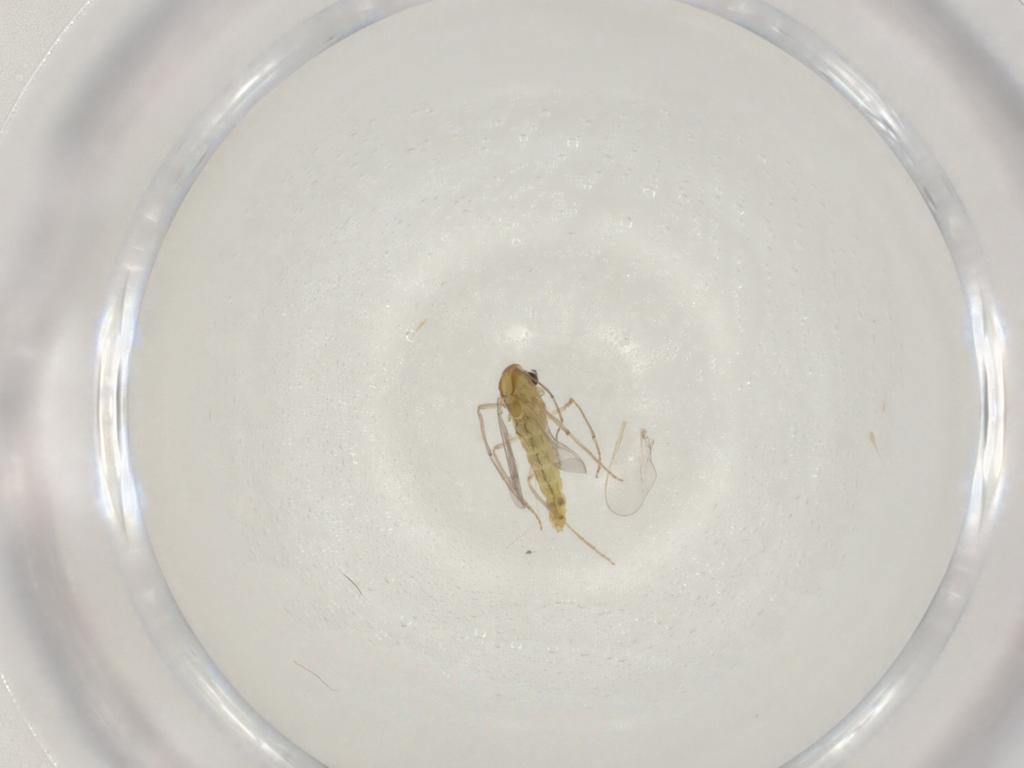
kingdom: Animalia
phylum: Arthropoda
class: Insecta
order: Diptera
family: Chironomidae
